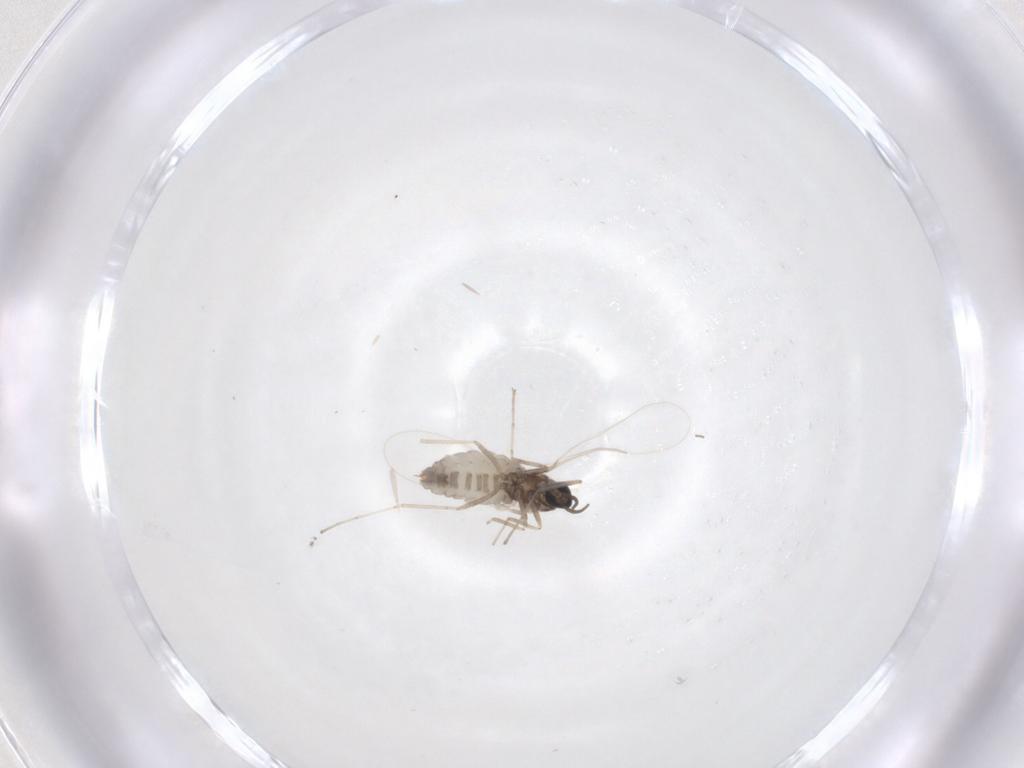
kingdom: Animalia
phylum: Arthropoda
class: Insecta
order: Diptera
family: Cecidomyiidae
